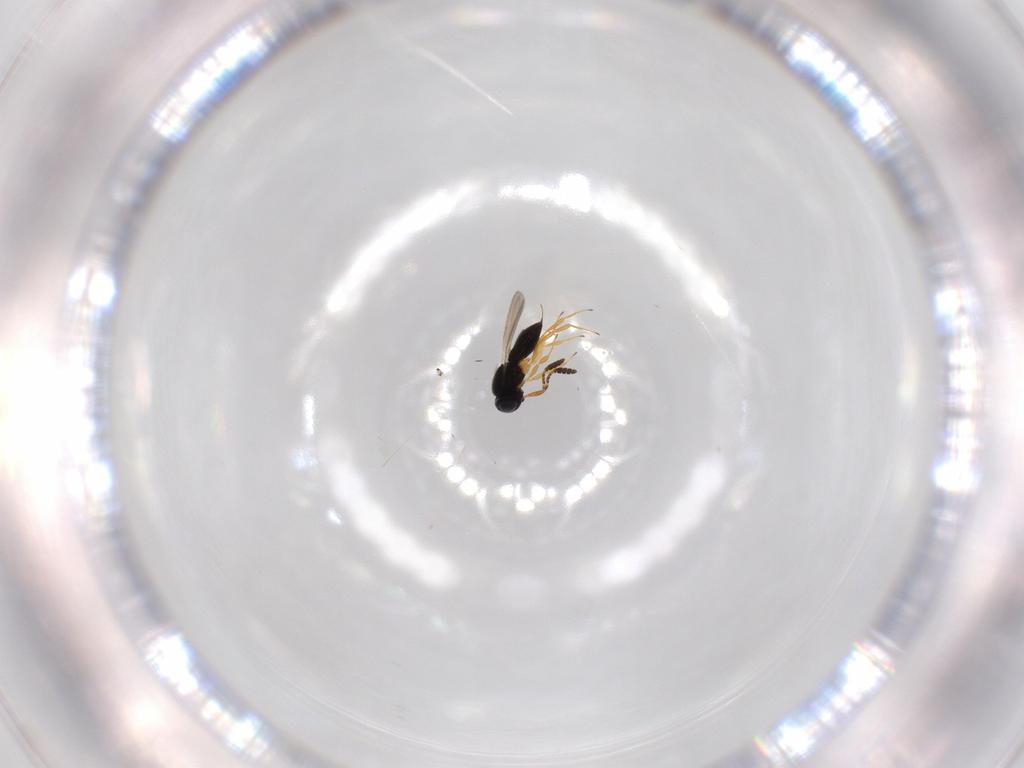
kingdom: Animalia
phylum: Arthropoda
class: Insecta
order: Hymenoptera
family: Scelionidae
